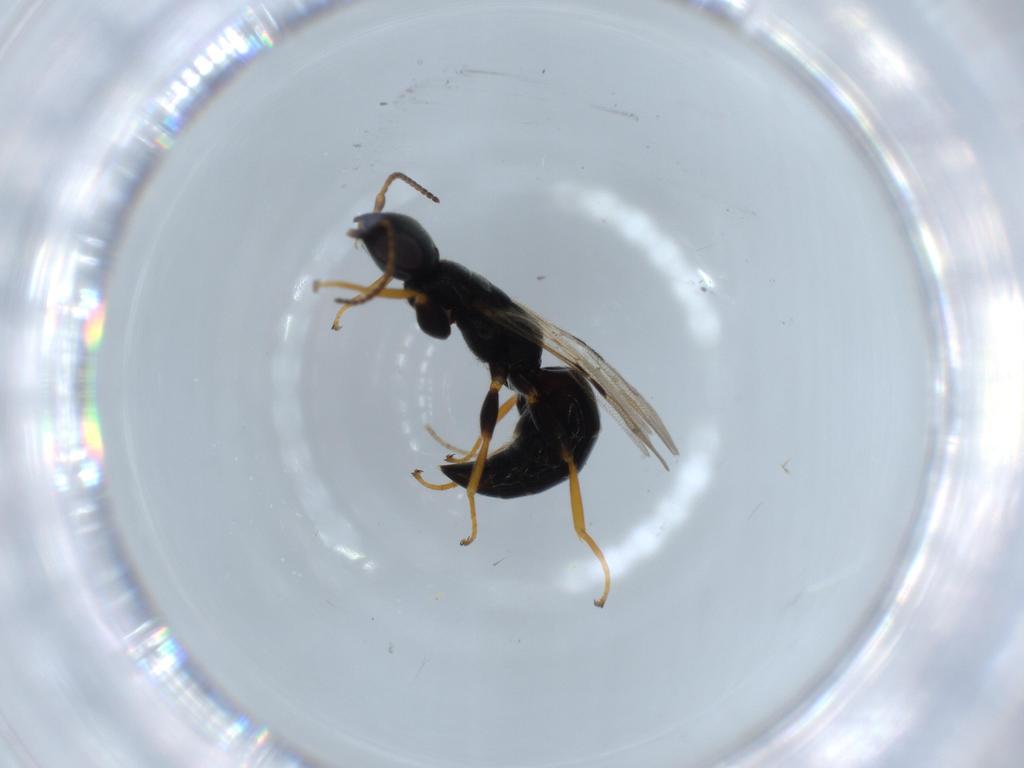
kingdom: Animalia
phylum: Arthropoda
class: Insecta
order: Hymenoptera
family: Bethylidae
